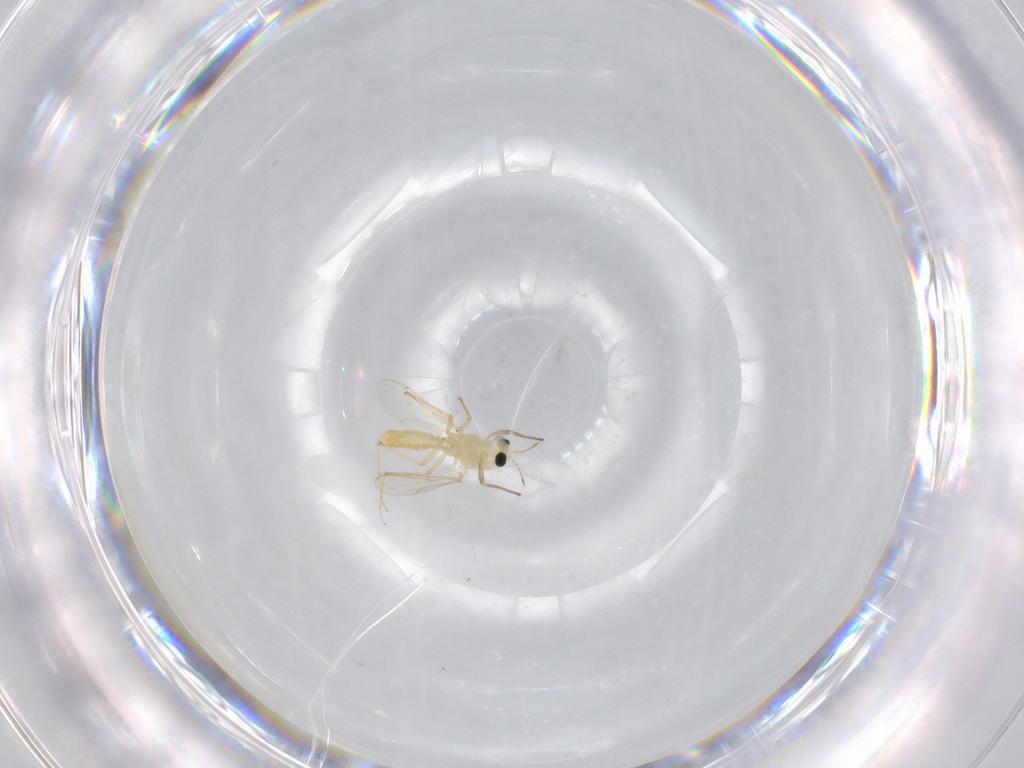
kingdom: Animalia
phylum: Arthropoda
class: Insecta
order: Diptera
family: Chironomidae
